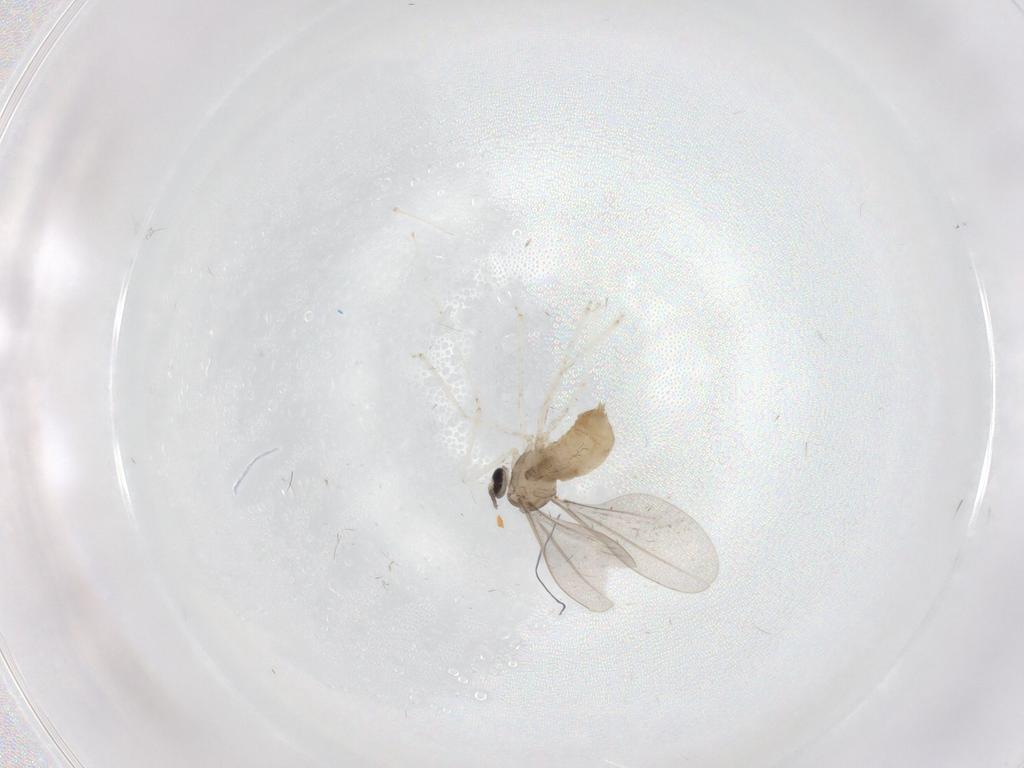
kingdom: Animalia
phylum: Arthropoda
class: Insecta
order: Diptera
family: Cecidomyiidae
